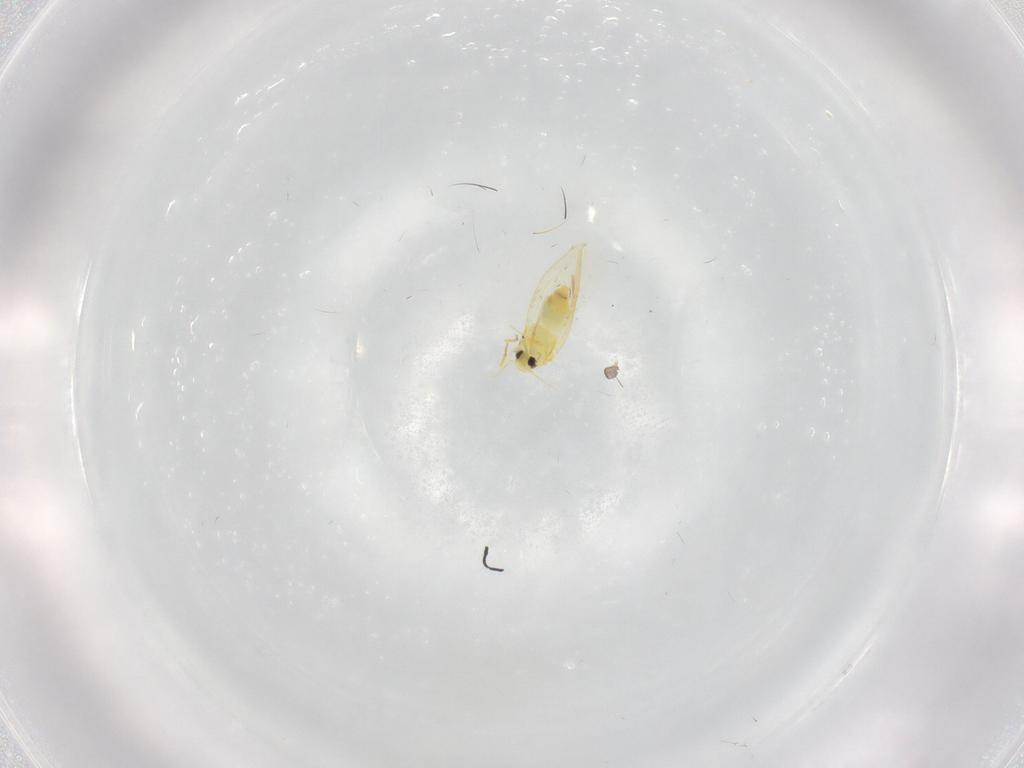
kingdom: Animalia
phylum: Arthropoda
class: Insecta
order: Hemiptera
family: Aleyrodidae
